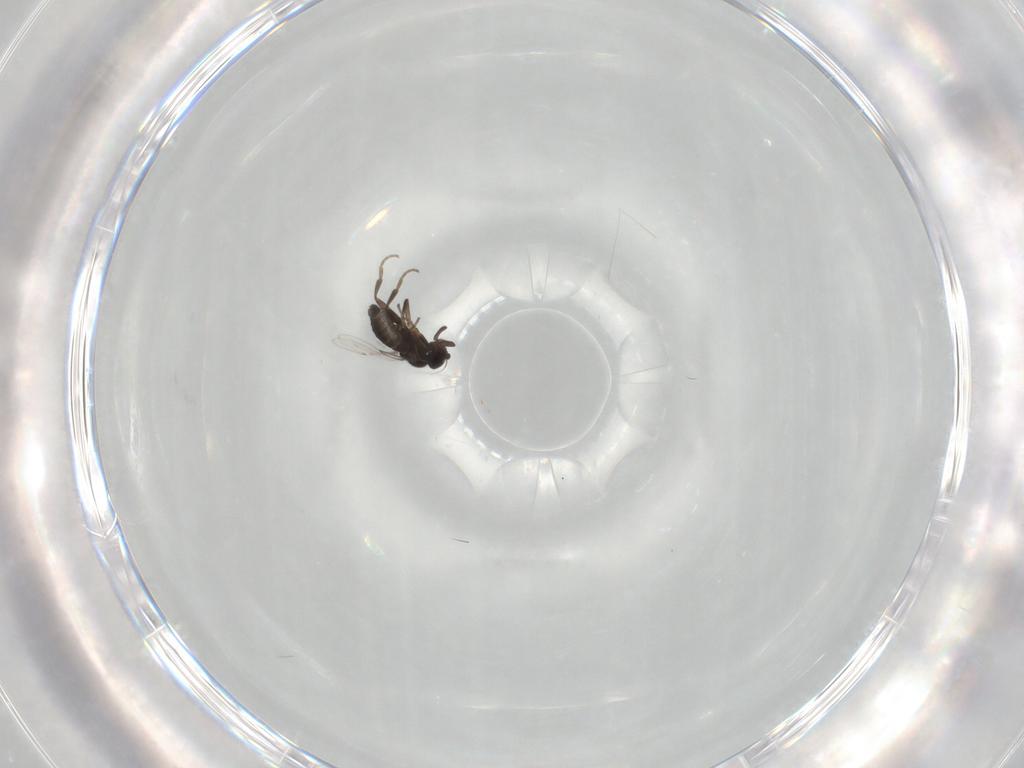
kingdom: Animalia
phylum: Arthropoda
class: Insecta
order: Diptera
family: Phoridae
